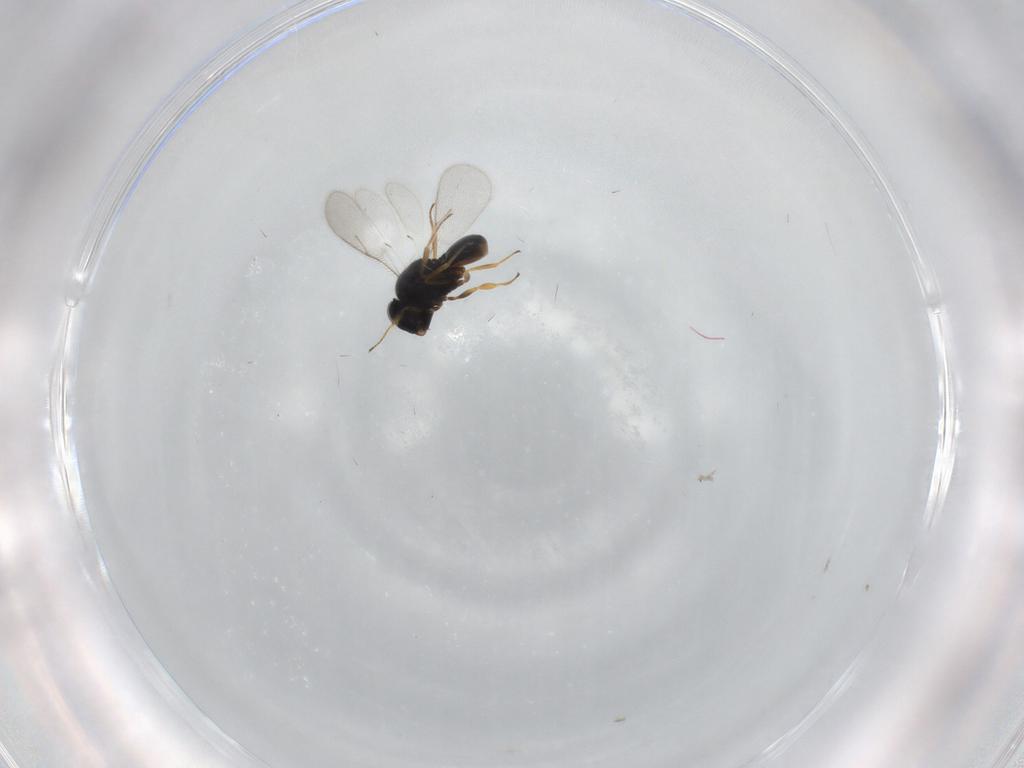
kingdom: Animalia
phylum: Arthropoda
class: Insecta
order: Hymenoptera
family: Scelionidae
